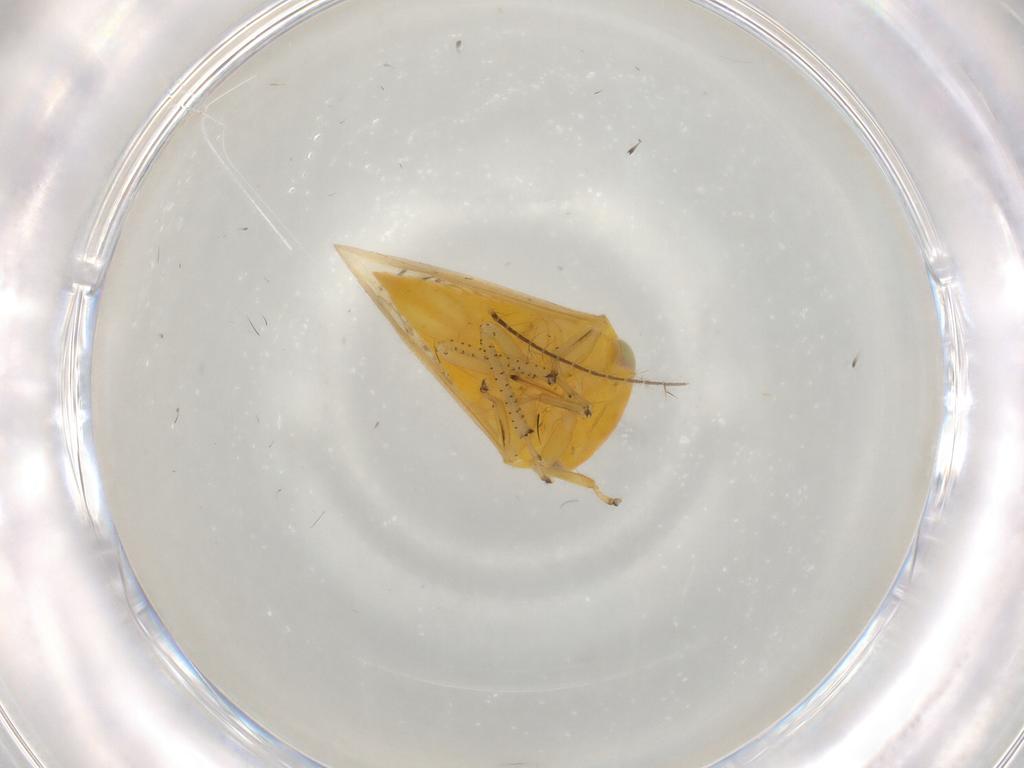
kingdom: Animalia
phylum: Arthropoda
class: Insecta
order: Hemiptera
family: Membracidae
